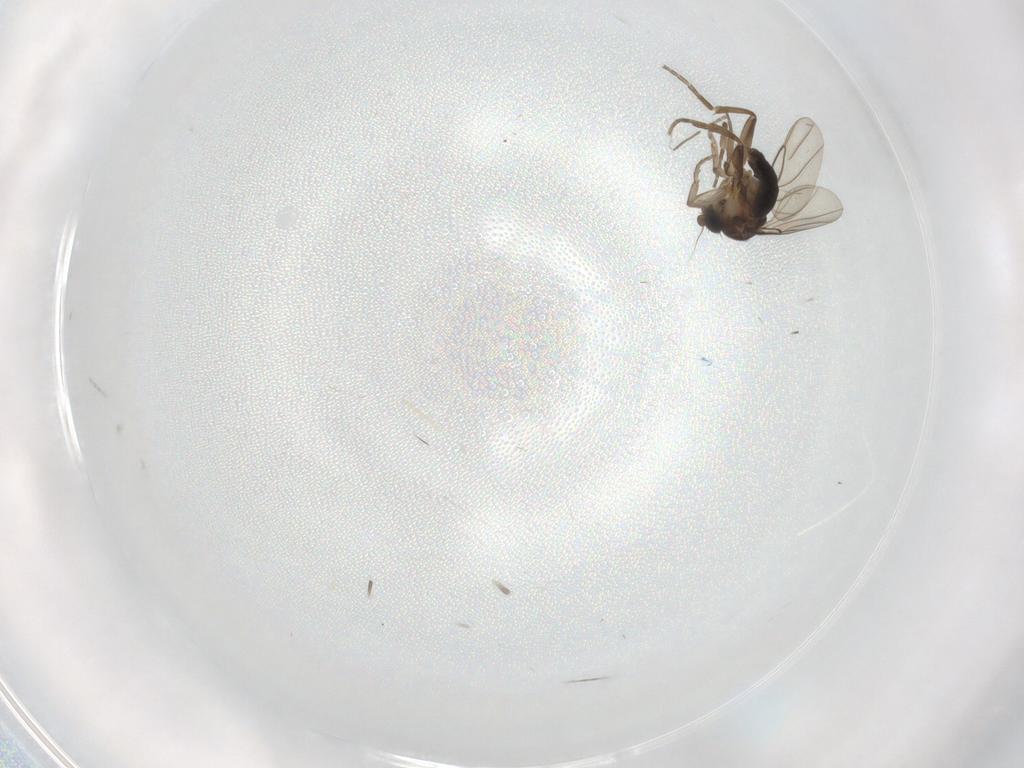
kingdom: Animalia
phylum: Arthropoda
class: Insecta
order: Diptera
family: Chironomidae
